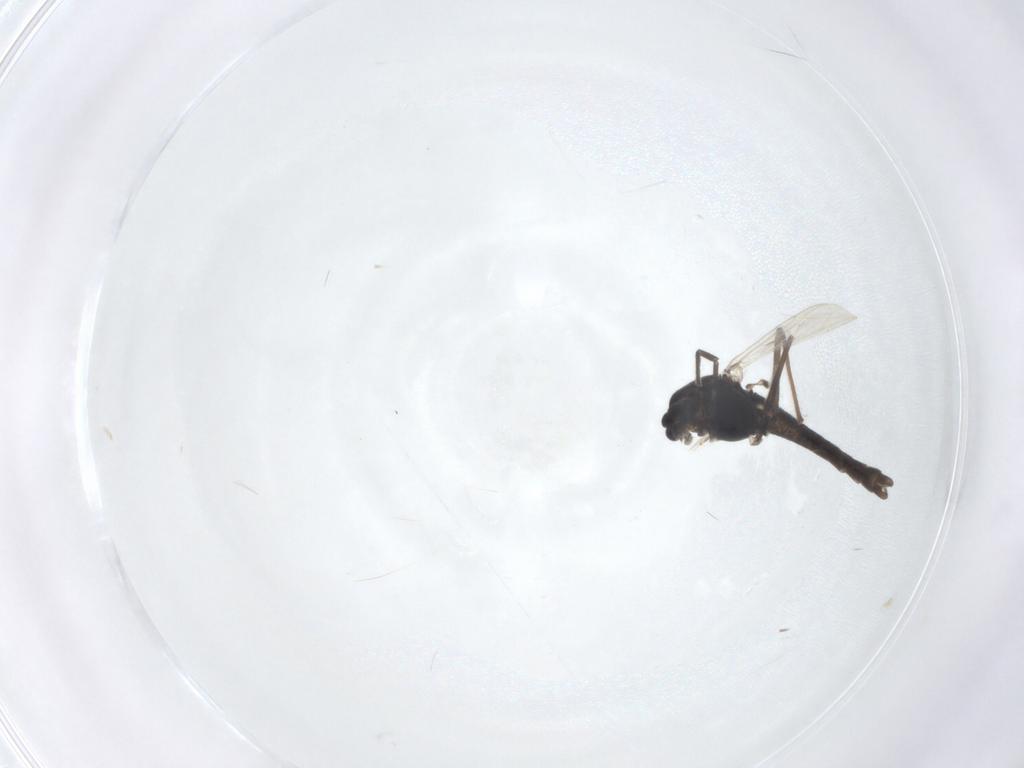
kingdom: Animalia
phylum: Arthropoda
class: Insecta
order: Diptera
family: Chironomidae
